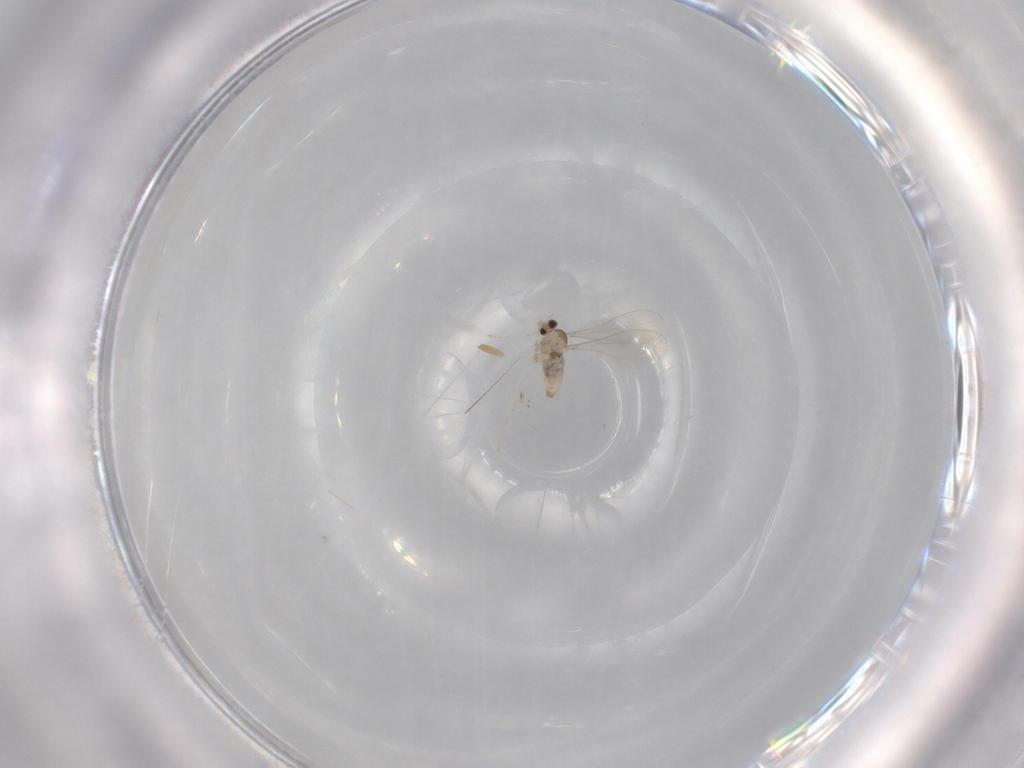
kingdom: Animalia
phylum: Arthropoda
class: Insecta
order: Diptera
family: Cecidomyiidae
